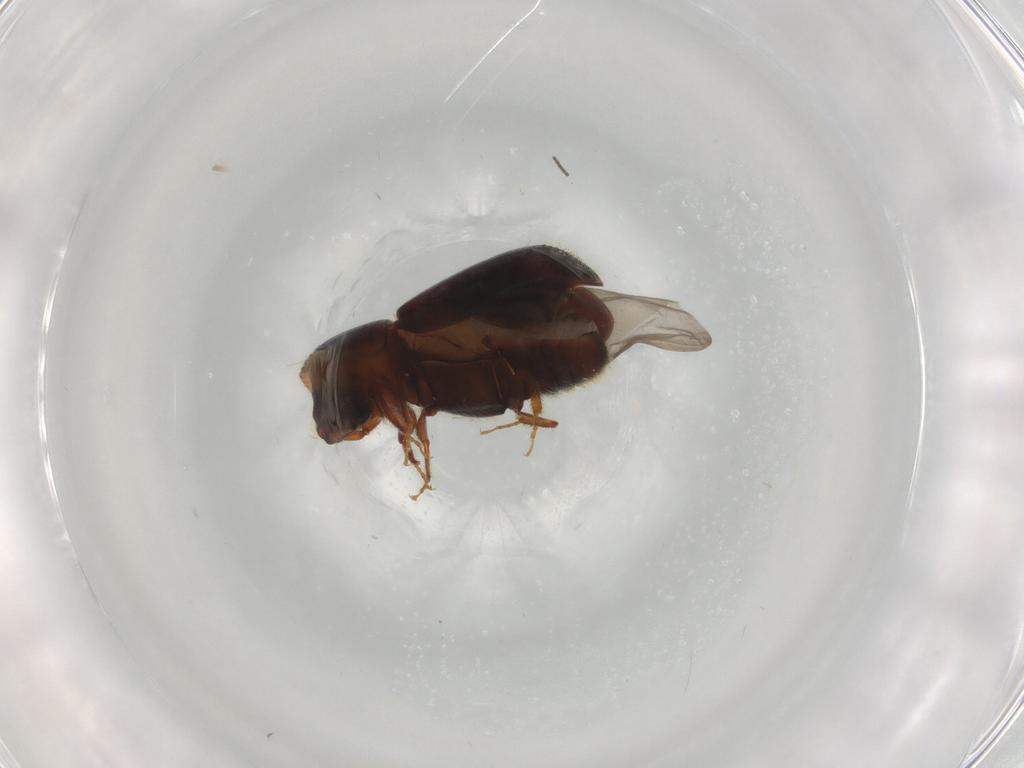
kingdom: Animalia
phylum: Arthropoda
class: Insecta
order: Coleoptera
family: Curculionidae
